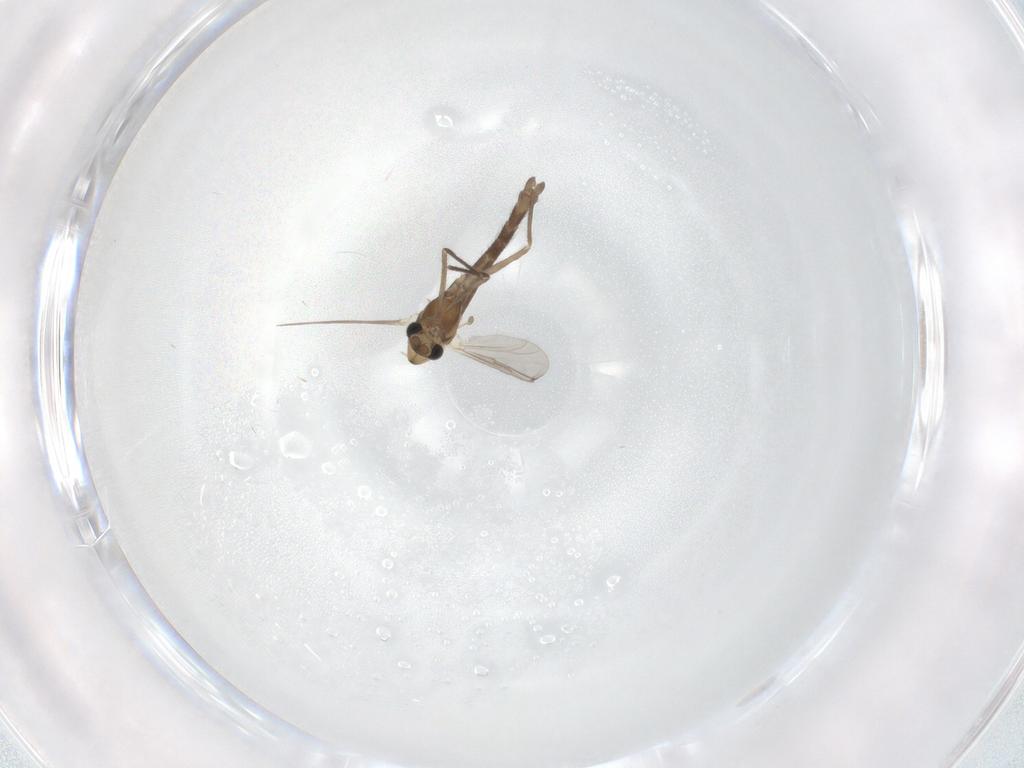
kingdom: Animalia
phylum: Arthropoda
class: Insecta
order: Diptera
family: Chironomidae
